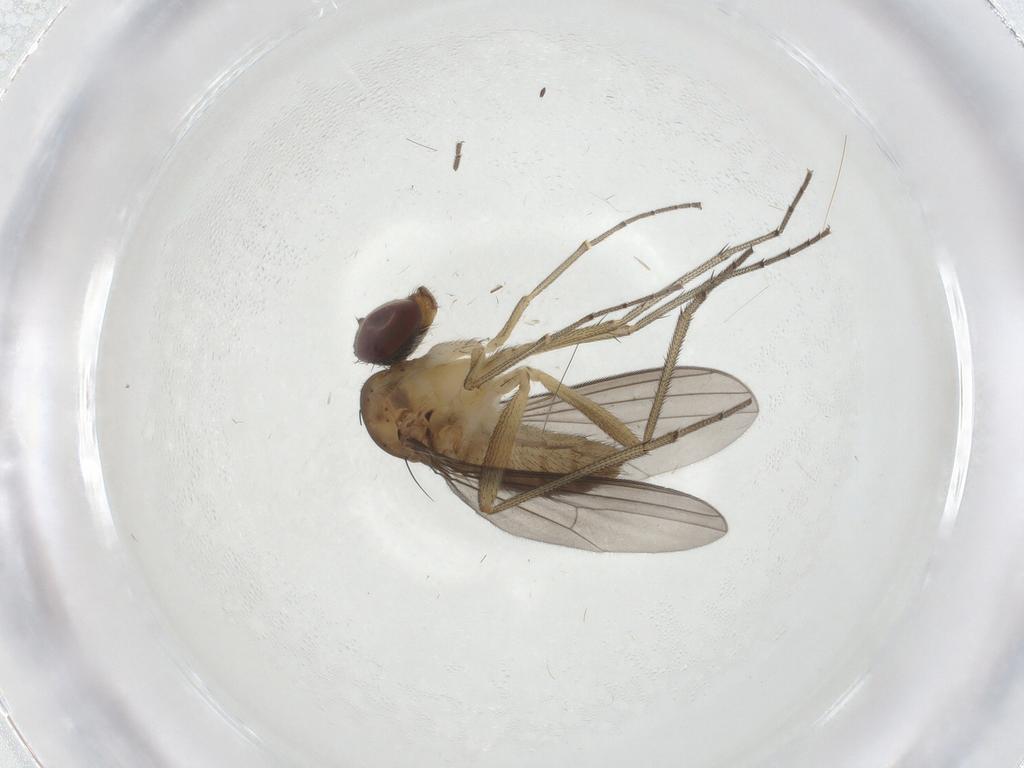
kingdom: Animalia
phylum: Arthropoda
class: Insecta
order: Diptera
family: Dolichopodidae
